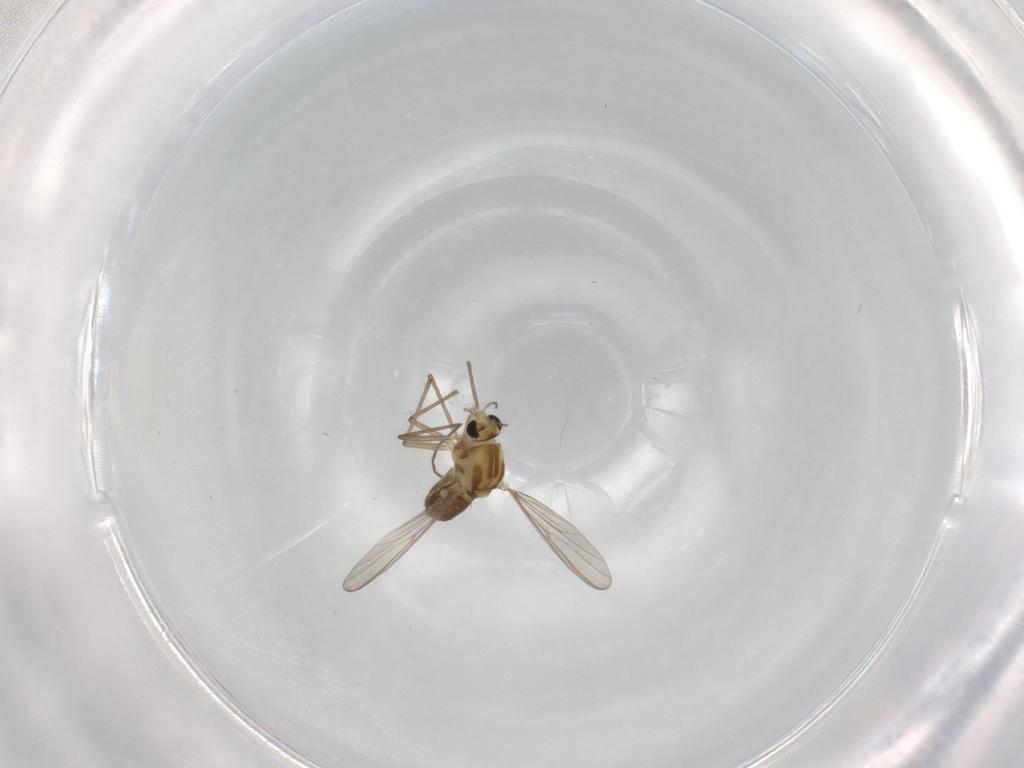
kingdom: Animalia
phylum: Arthropoda
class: Insecta
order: Diptera
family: Chironomidae
